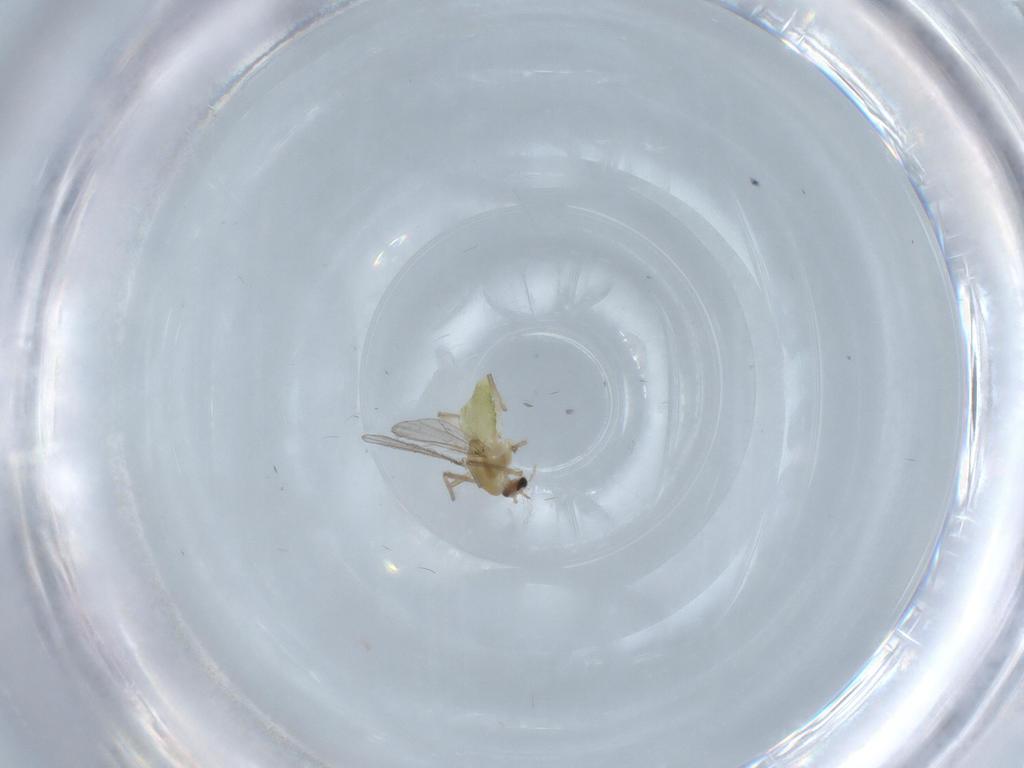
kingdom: Animalia
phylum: Arthropoda
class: Insecta
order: Diptera
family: Chironomidae
